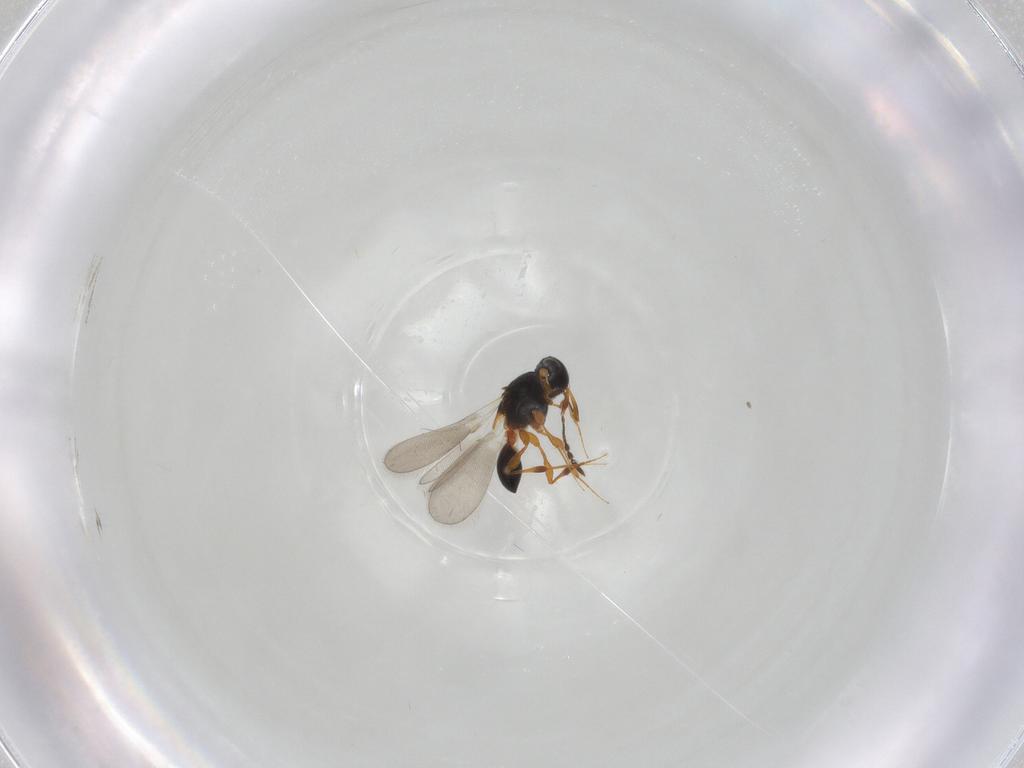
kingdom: Animalia
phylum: Arthropoda
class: Insecta
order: Hymenoptera
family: Platygastridae
